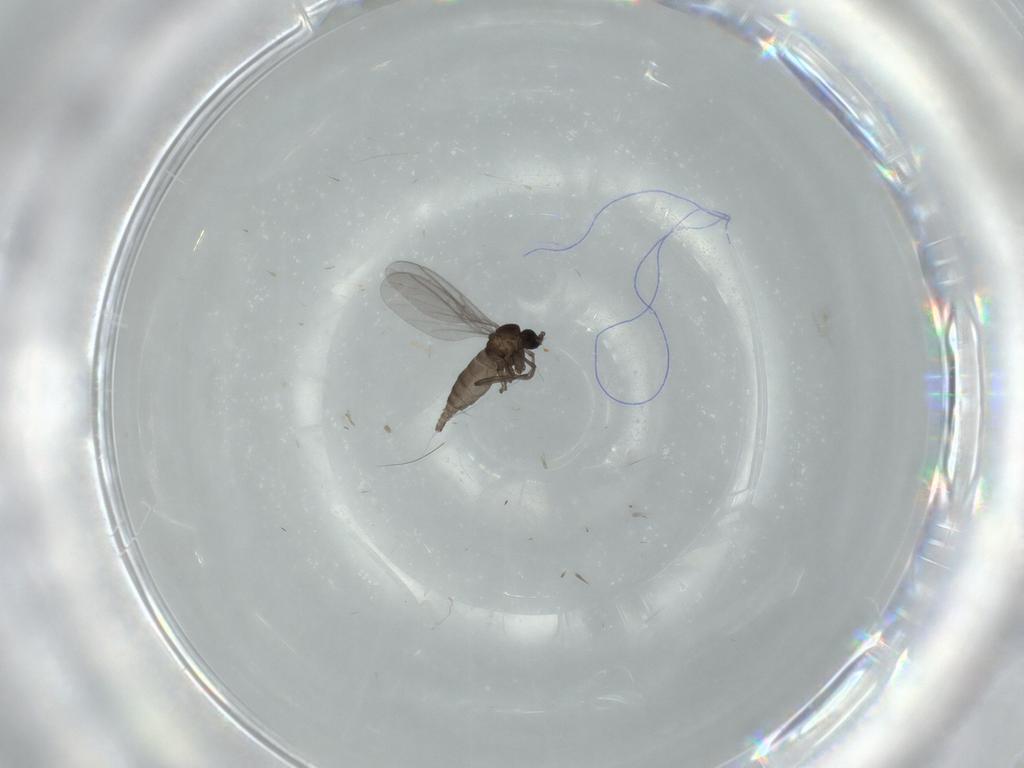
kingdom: Animalia
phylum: Arthropoda
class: Insecta
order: Diptera
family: Sciaridae
